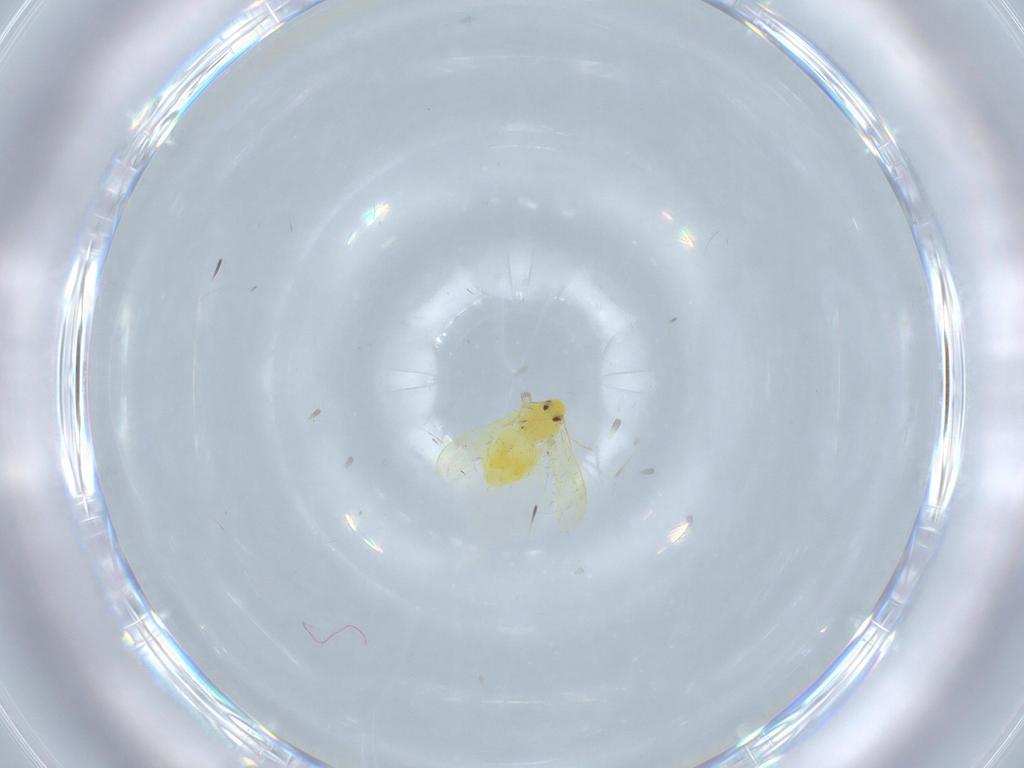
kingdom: Animalia
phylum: Arthropoda
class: Insecta
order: Hemiptera
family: Aleyrodidae
